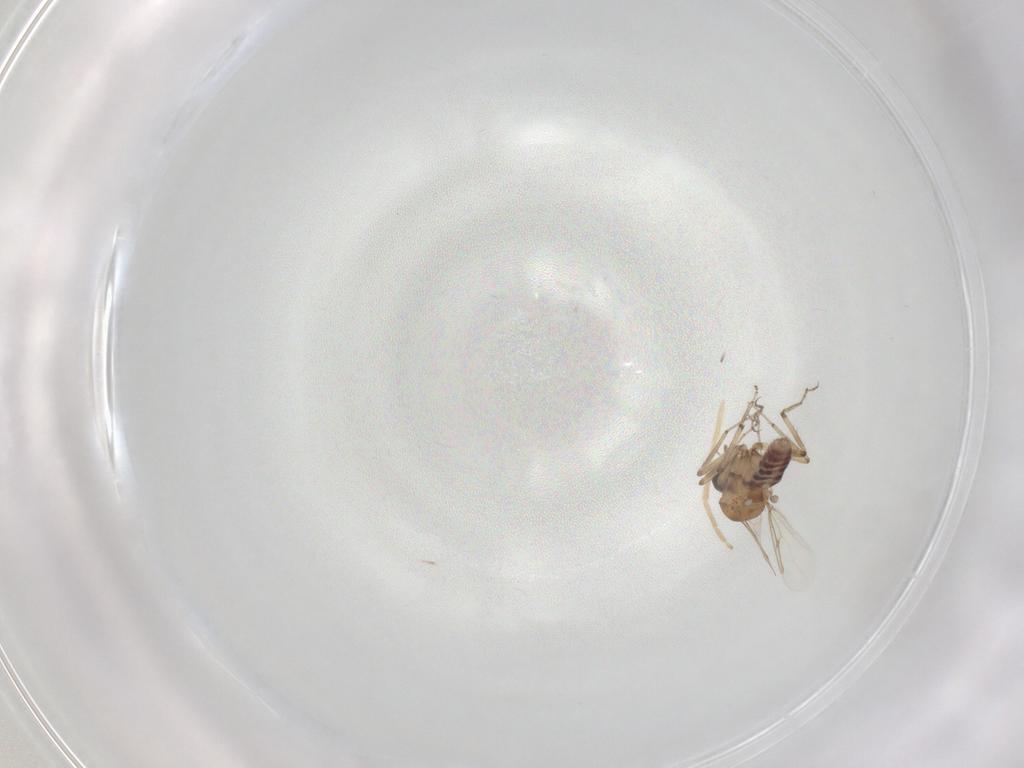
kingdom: Animalia
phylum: Arthropoda
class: Insecta
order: Diptera
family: Ceratopogonidae
